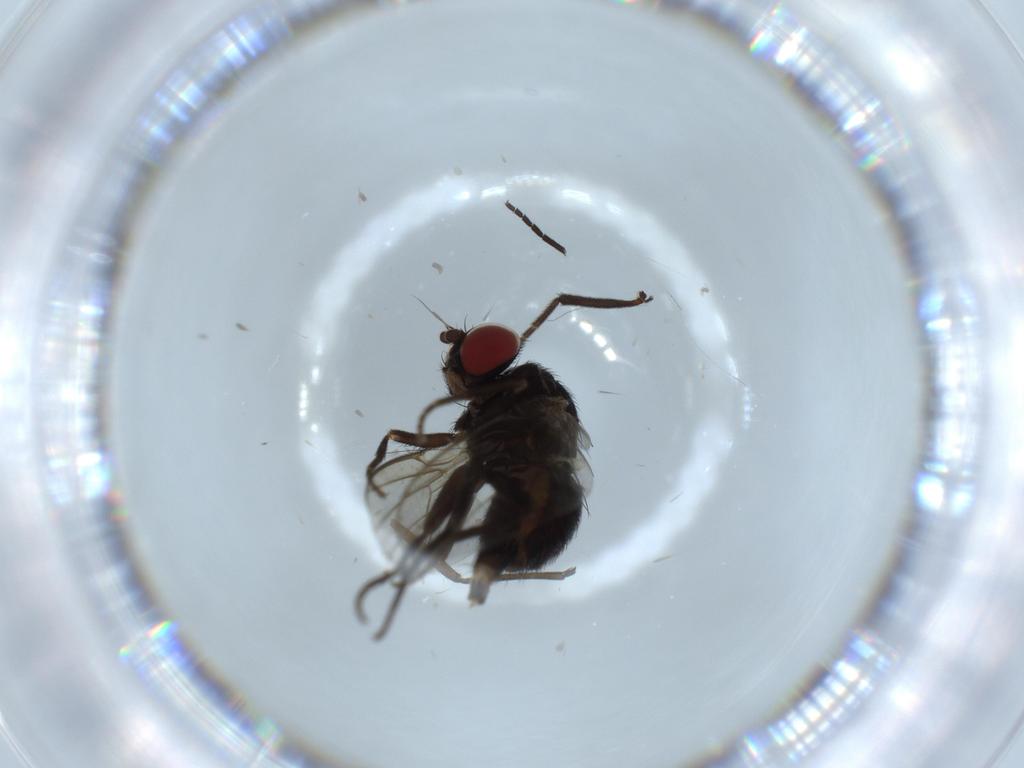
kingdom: Animalia
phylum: Arthropoda
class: Insecta
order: Diptera
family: Agromyzidae
